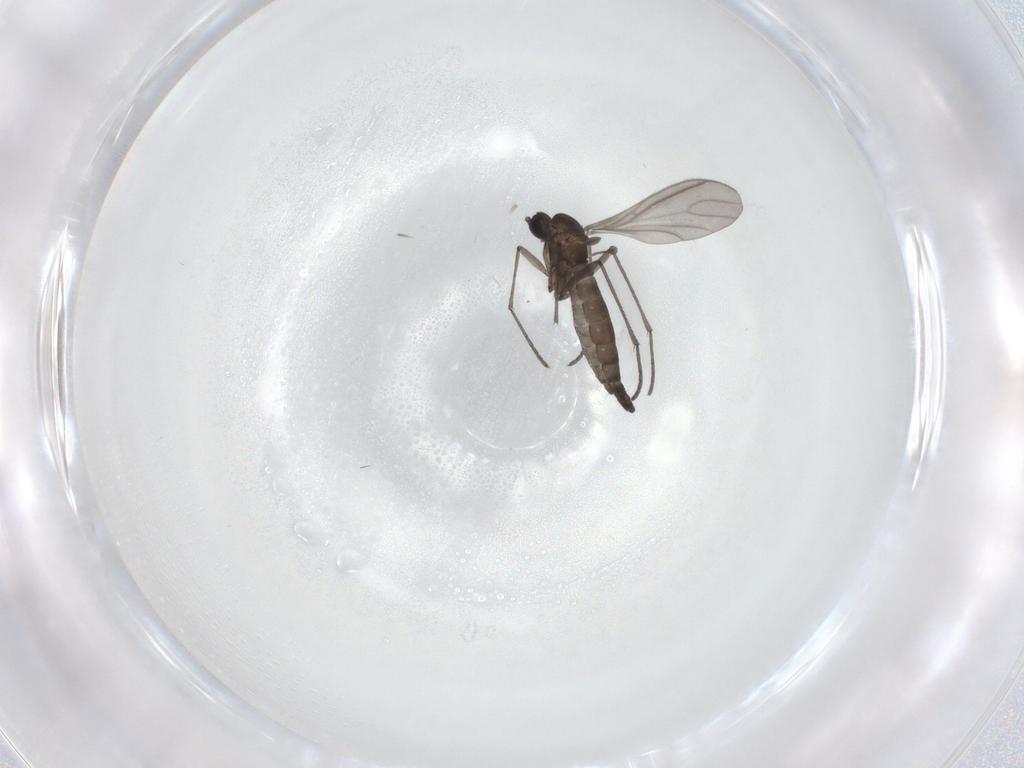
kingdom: Animalia
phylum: Arthropoda
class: Insecta
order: Diptera
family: Sciaridae
